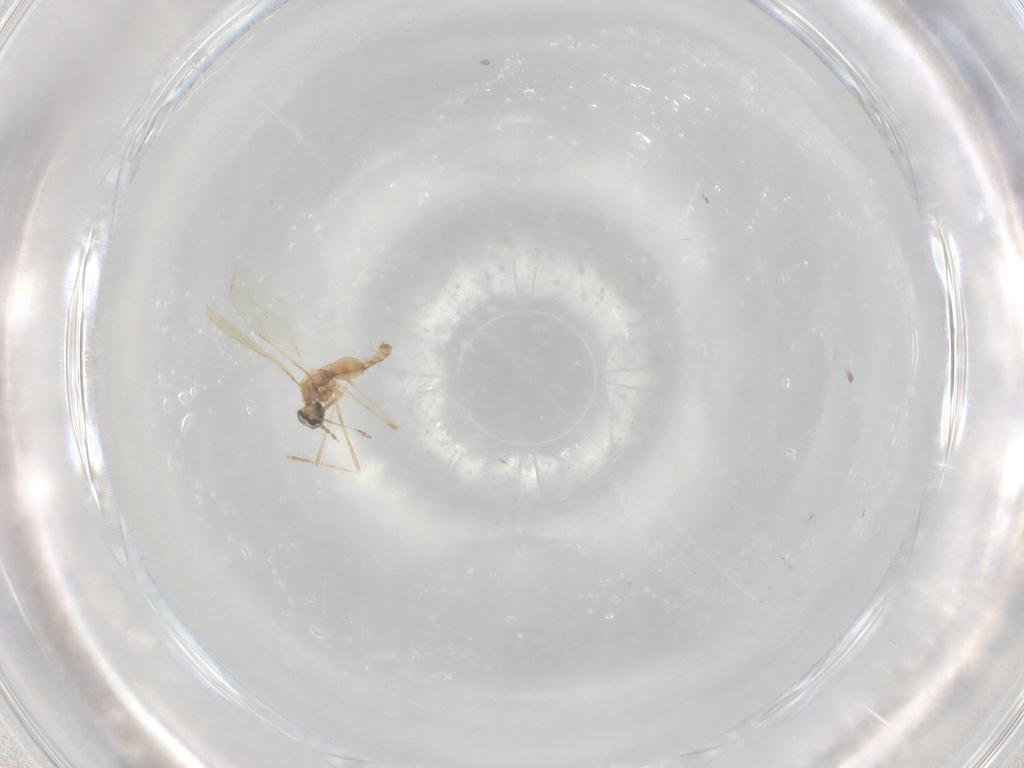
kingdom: Animalia
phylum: Arthropoda
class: Insecta
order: Diptera
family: Cecidomyiidae
